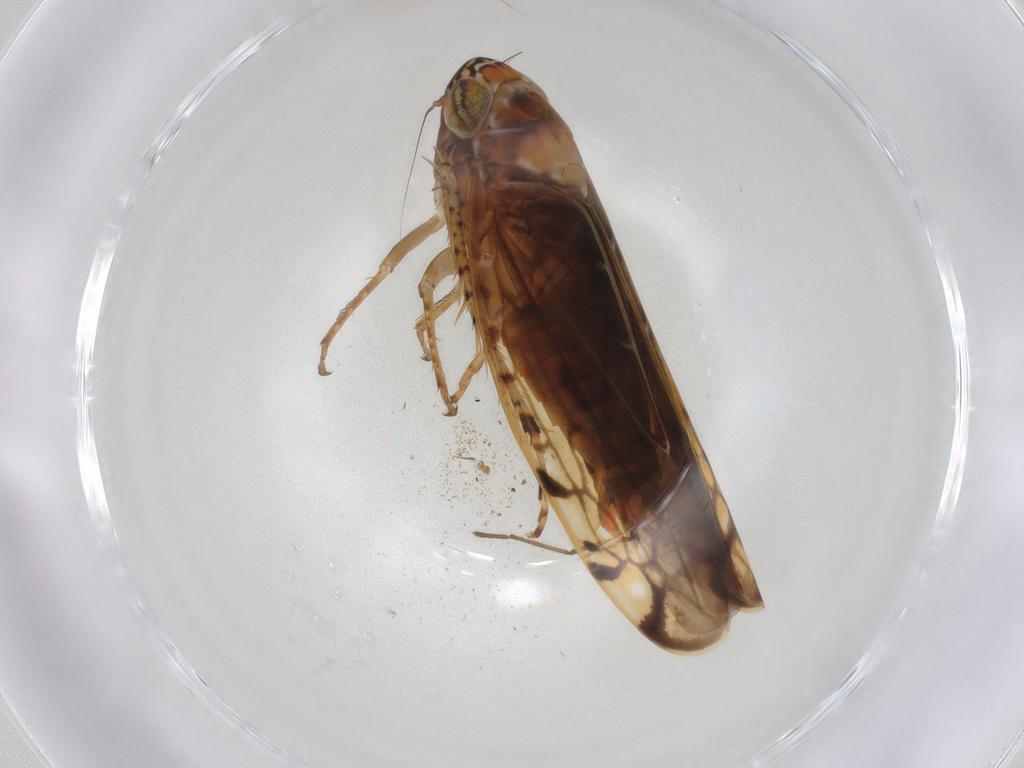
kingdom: Animalia
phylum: Arthropoda
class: Insecta
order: Hemiptera
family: Cicadellidae
